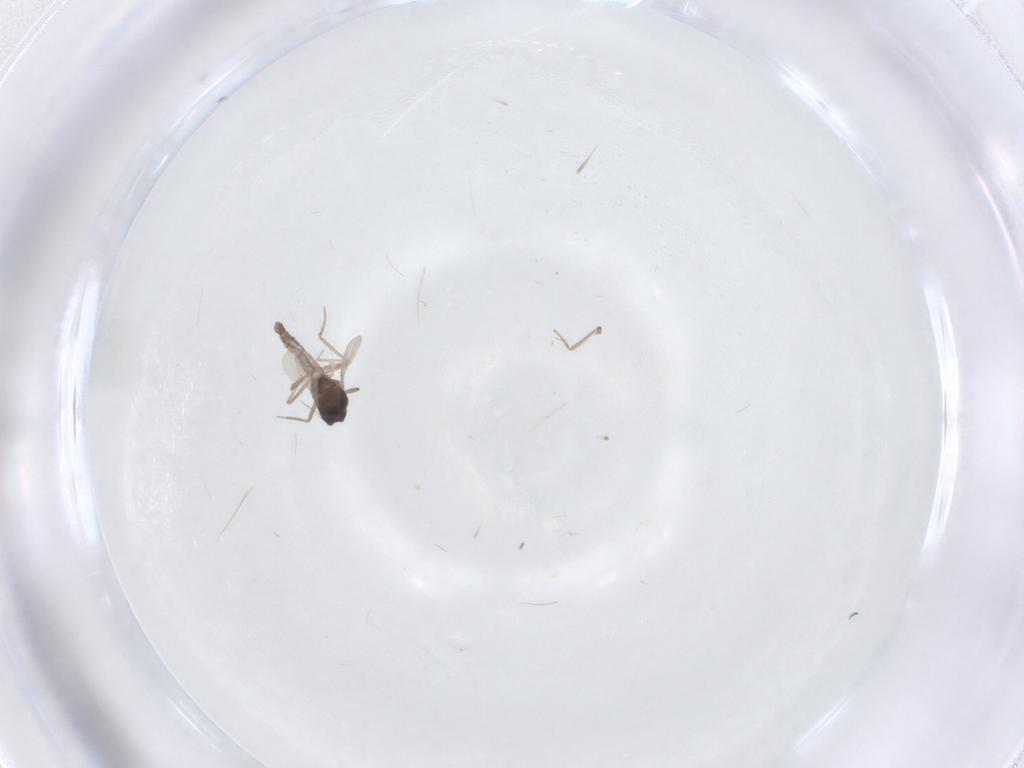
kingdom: Animalia
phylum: Arthropoda
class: Insecta
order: Diptera
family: Ceratopogonidae
